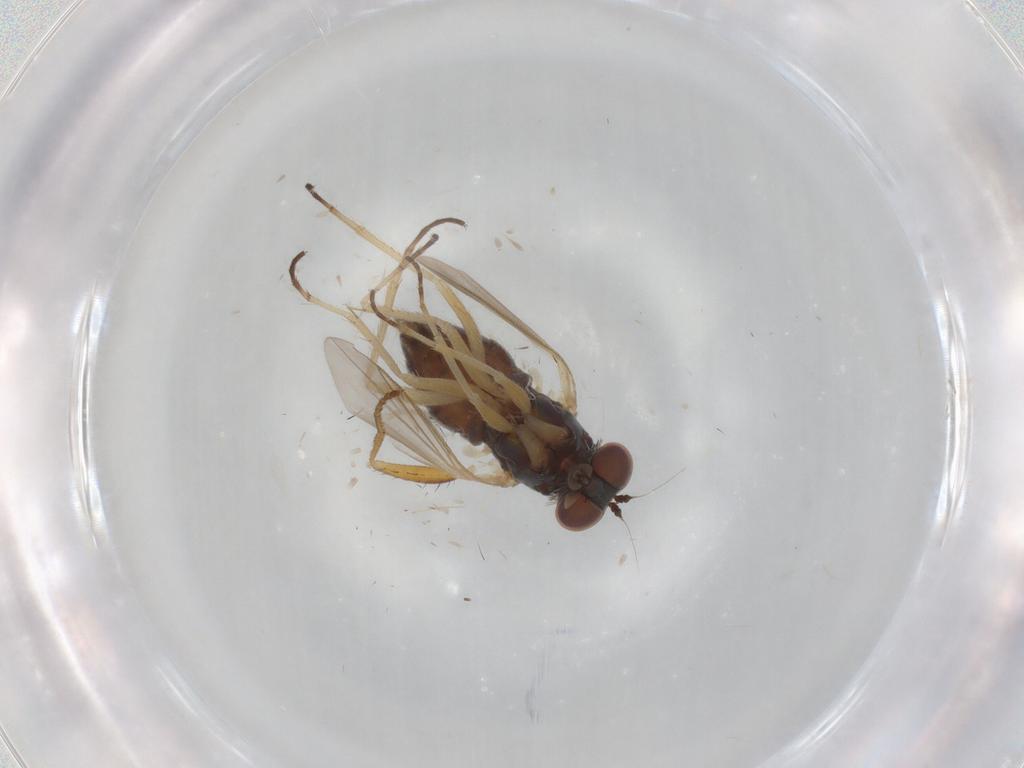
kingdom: Animalia
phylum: Arthropoda
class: Insecta
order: Diptera
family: Dolichopodidae
